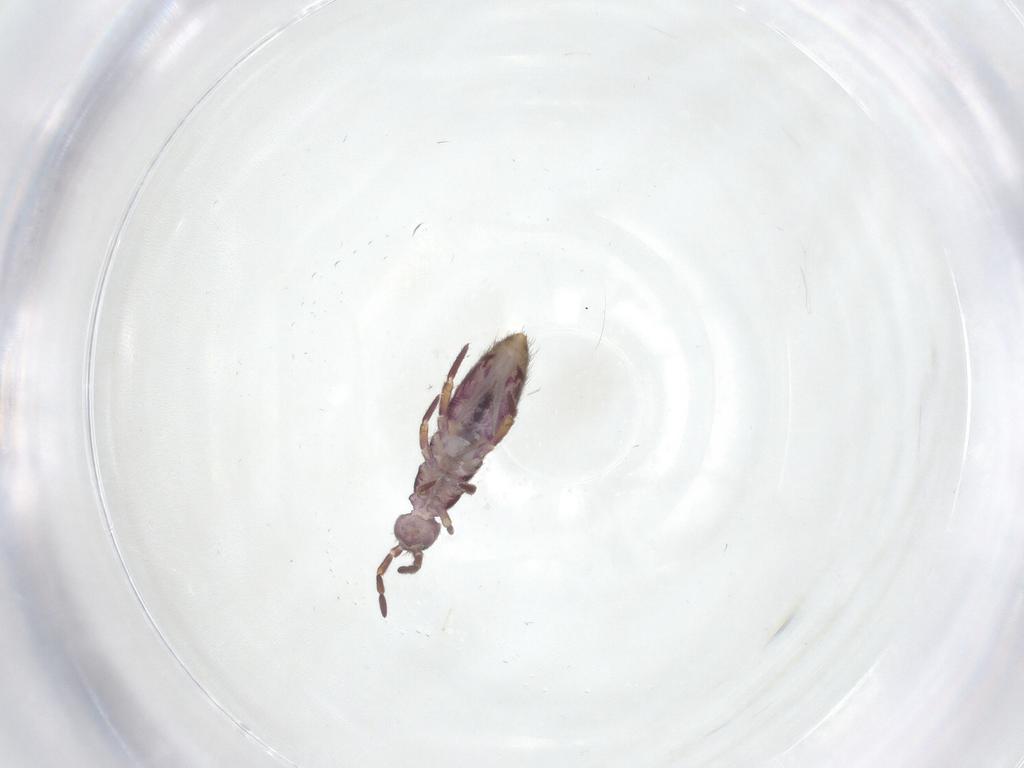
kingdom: Animalia
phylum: Arthropoda
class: Collembola
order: Entomobryomorpha
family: Isotomidae
